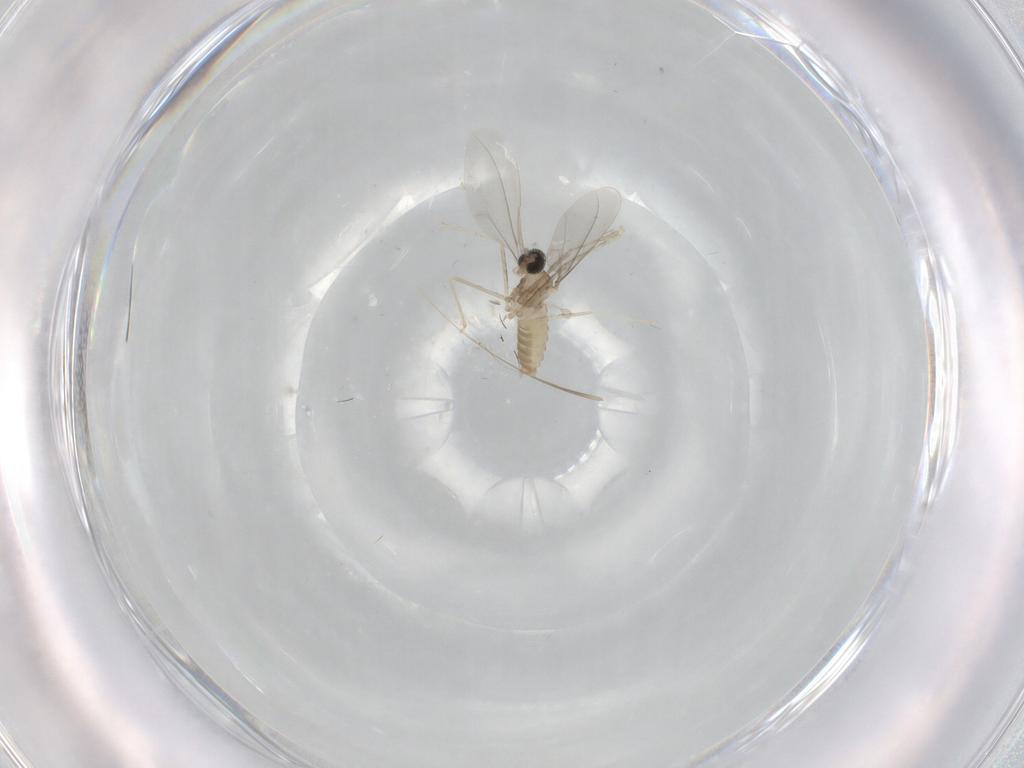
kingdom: Animalia
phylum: Arthropoda
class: Insecta
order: Diptera
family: Cecidomyiidae
